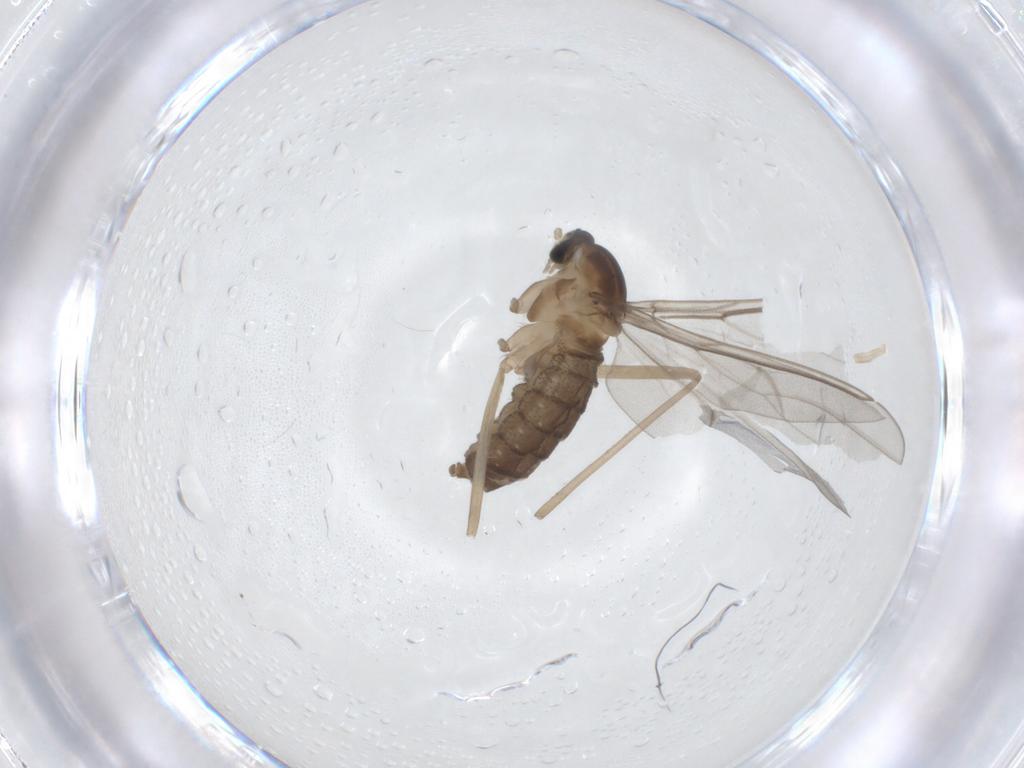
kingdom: Animalia
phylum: Arthropoda
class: Insecta
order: Diptera
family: Cecidomyiidae
